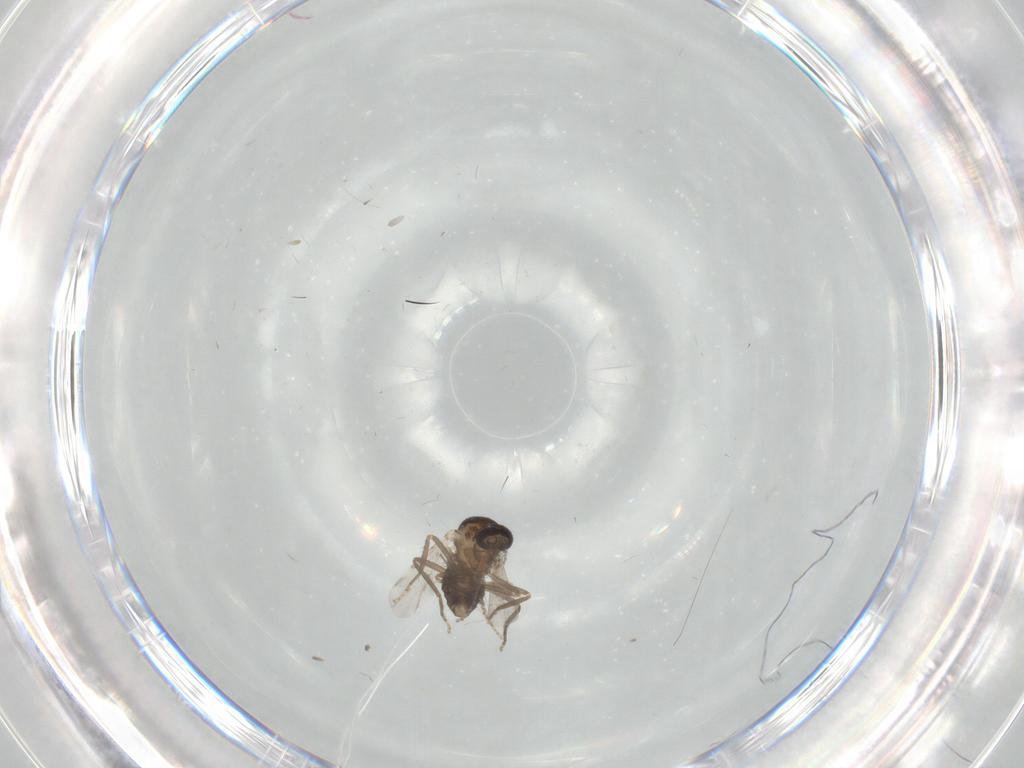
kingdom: Animalia
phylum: Arthropoda
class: Insecta
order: Diptera
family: Ceratopogonidae
